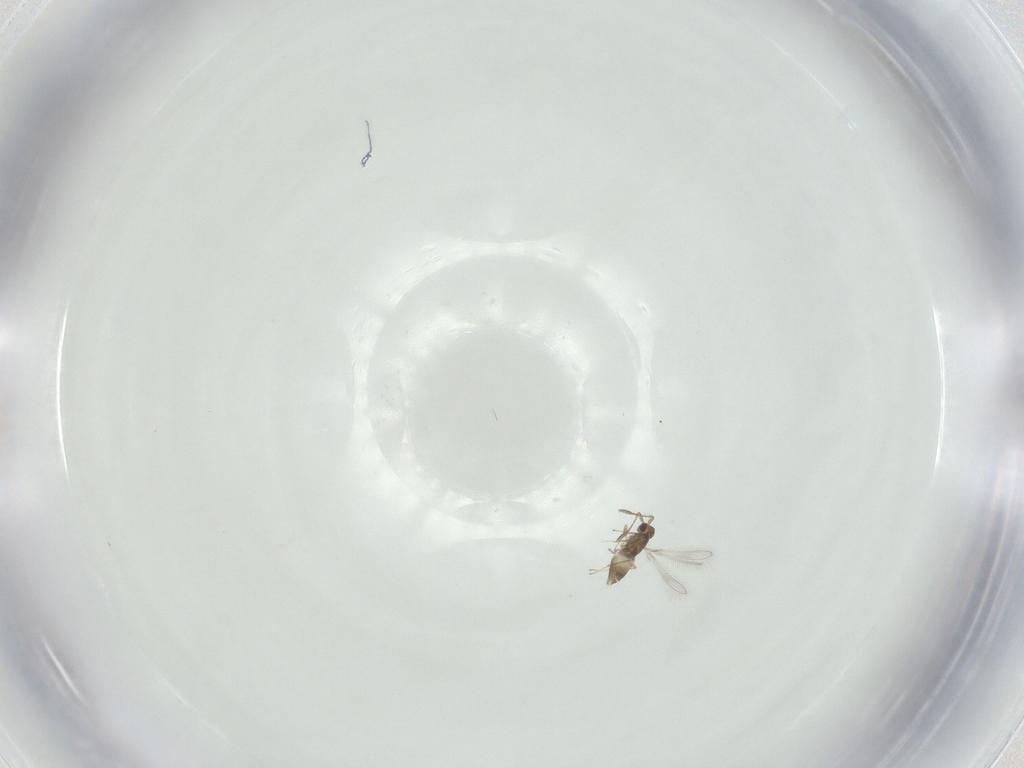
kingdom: Animalia
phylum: Arthropoda
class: Insecta
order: Hymenoptera
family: Mymaridae
